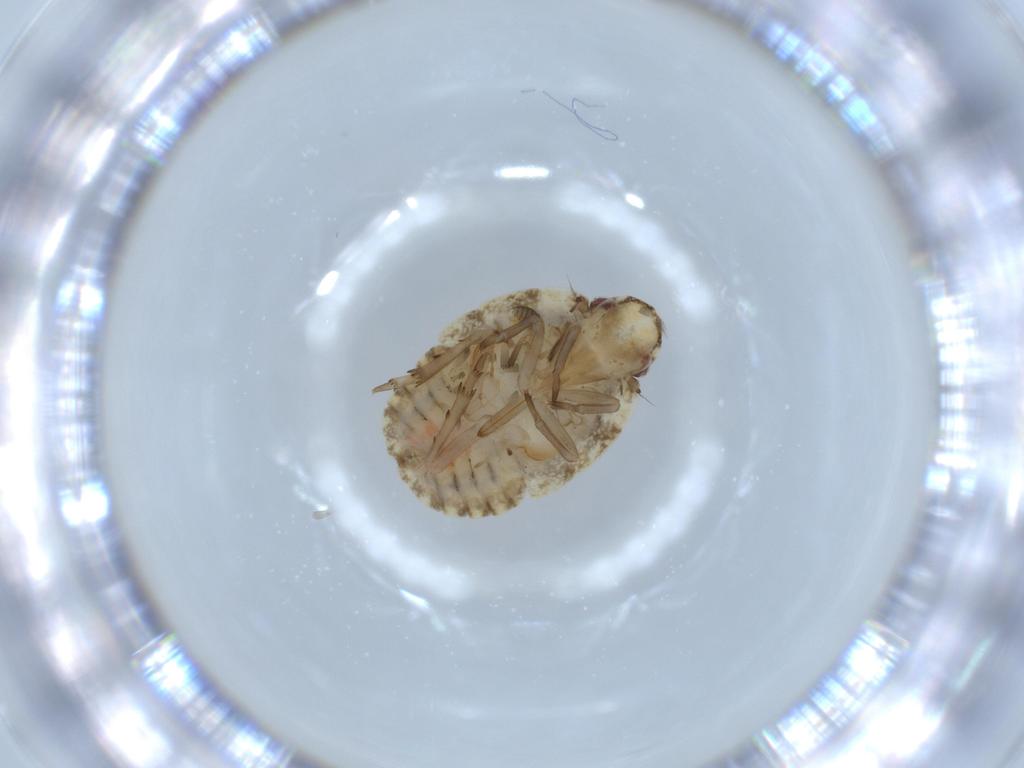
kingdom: Animalia
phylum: Arthropoda
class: Insecta
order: Hemiptera
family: Flatidae
